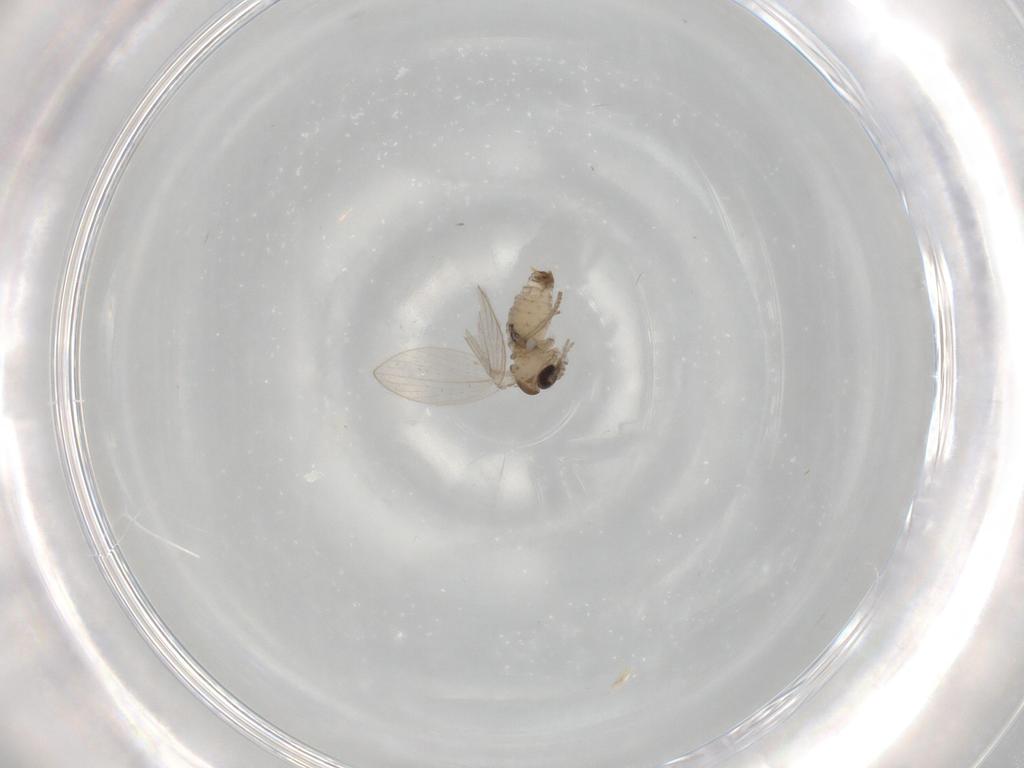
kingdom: Animalia
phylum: Arthropoda
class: Insecta
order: Diptera
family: Psychodidae
